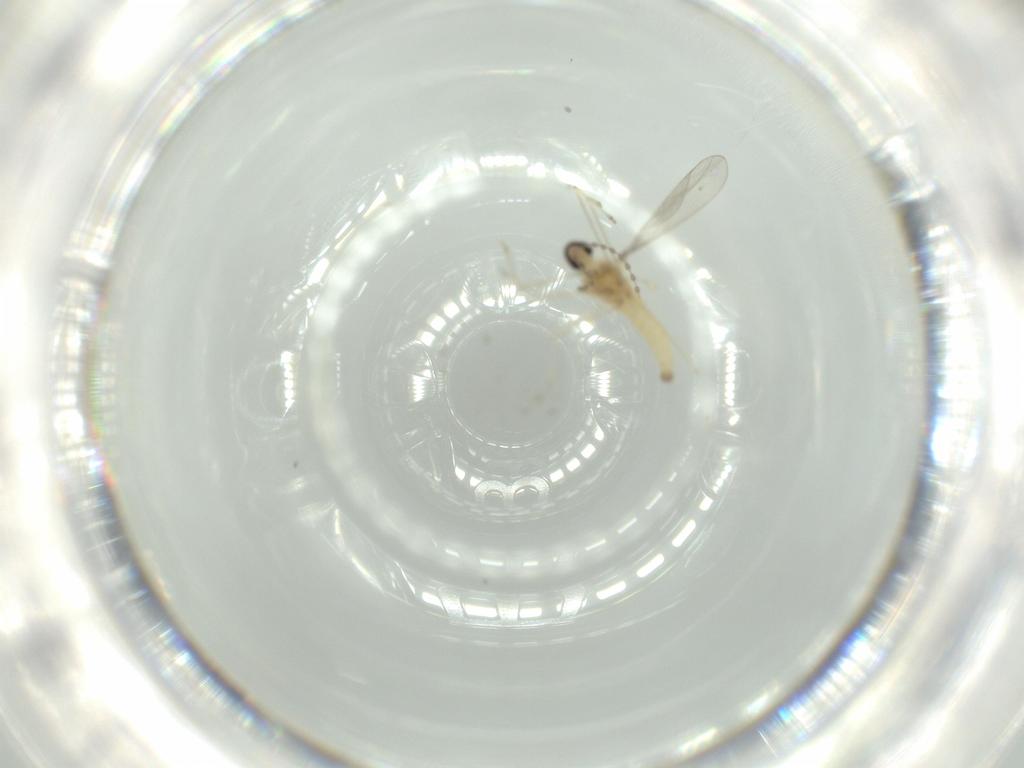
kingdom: Animalia
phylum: Arthropoda
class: Insecta
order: Diptera
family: Cecidomyiidae
